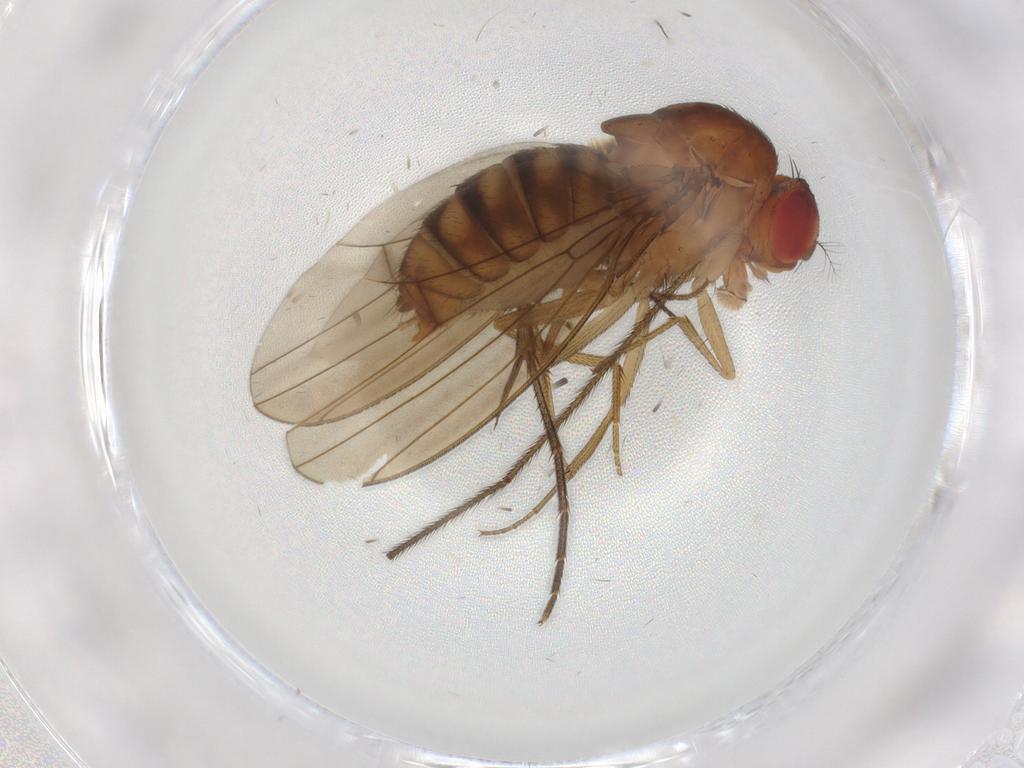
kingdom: Animalia
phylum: Arthropoda
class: Insecta
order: Diptera
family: Drosophilidae
